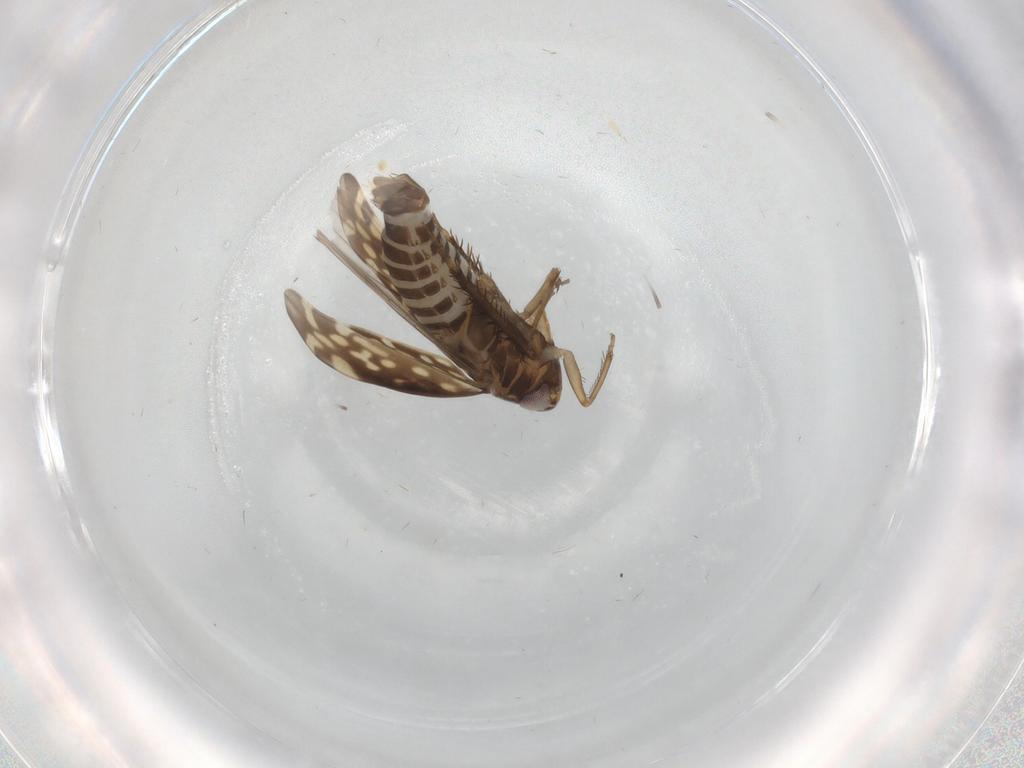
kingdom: Animalia
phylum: Arthropoda
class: Insecta
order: Hemiptera
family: Cicadellidae
